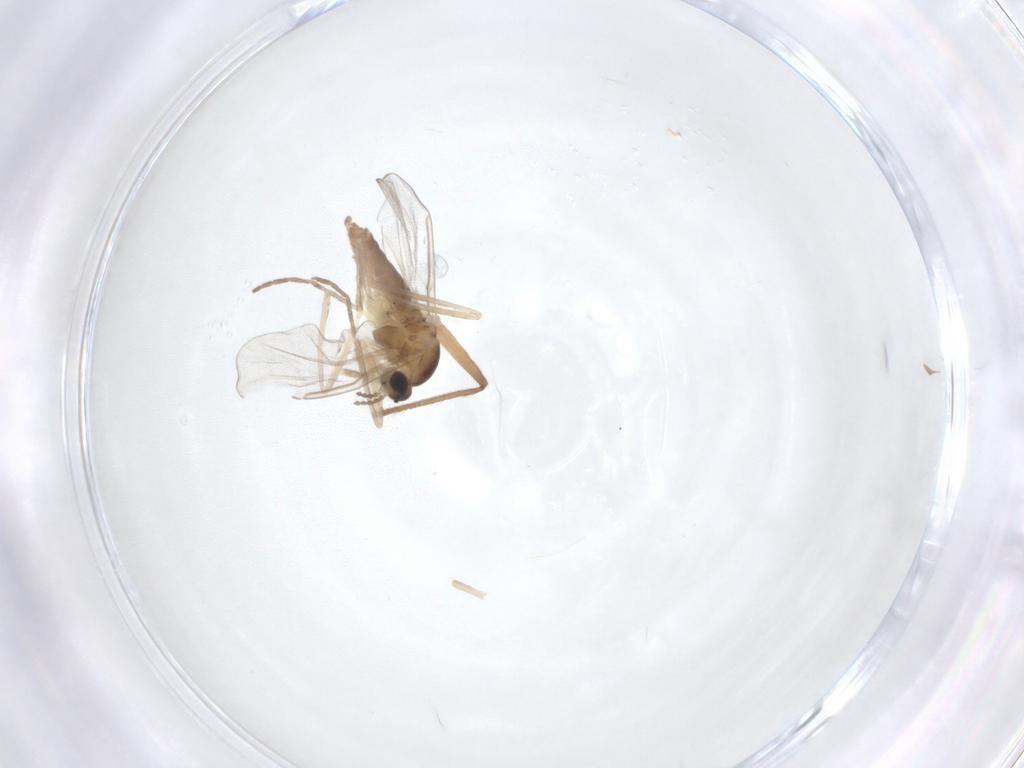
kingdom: Animalia
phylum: Arthropoda
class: Insecta
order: Diptera
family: Cecidomyiidae
